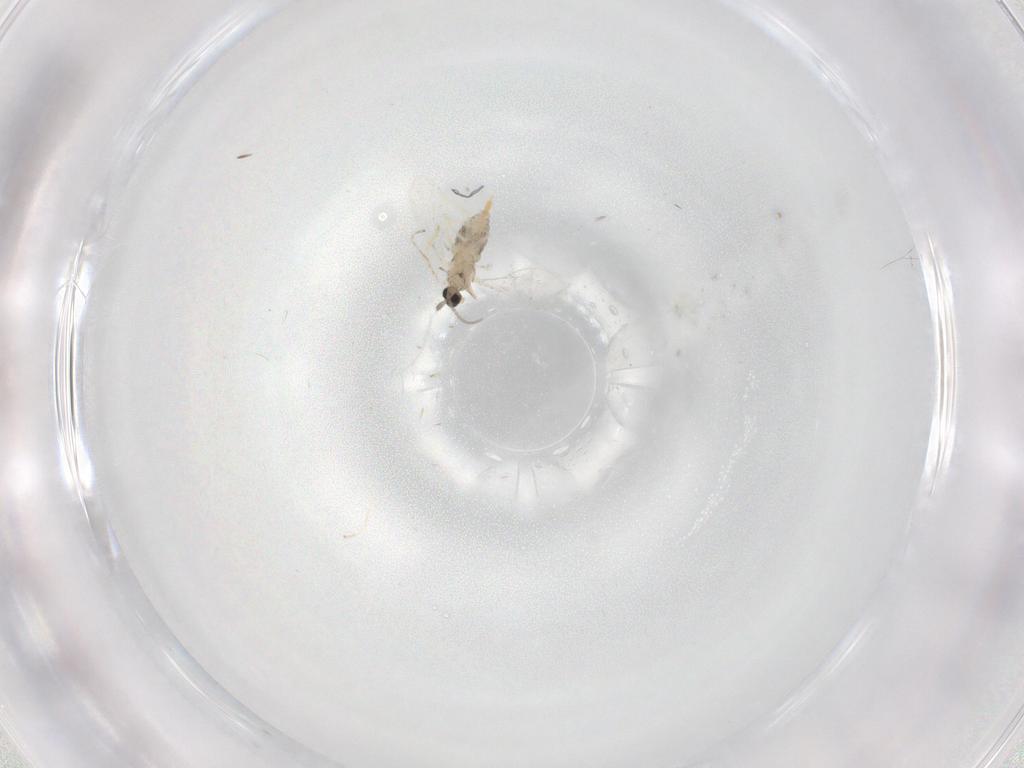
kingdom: Animalia
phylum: Arthropoda
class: Insecta
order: Diptera
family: Cecidomyiidae
